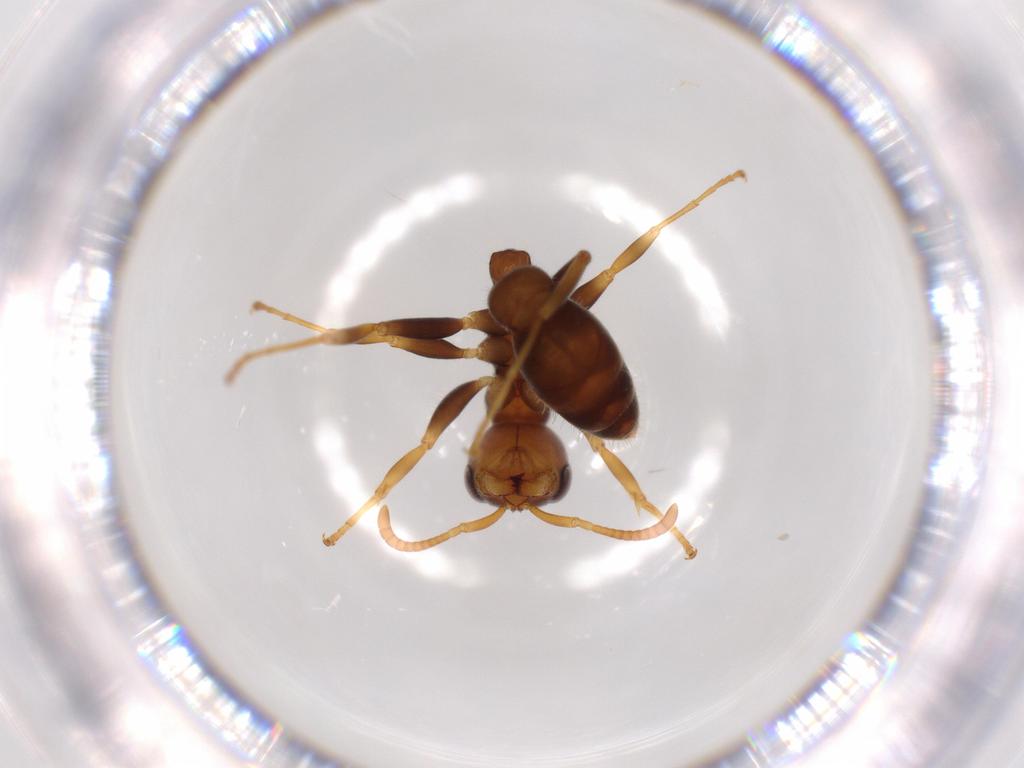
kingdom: Animalia
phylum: Arthropoda
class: Insecta
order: Hymenoptera
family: Formicidae
